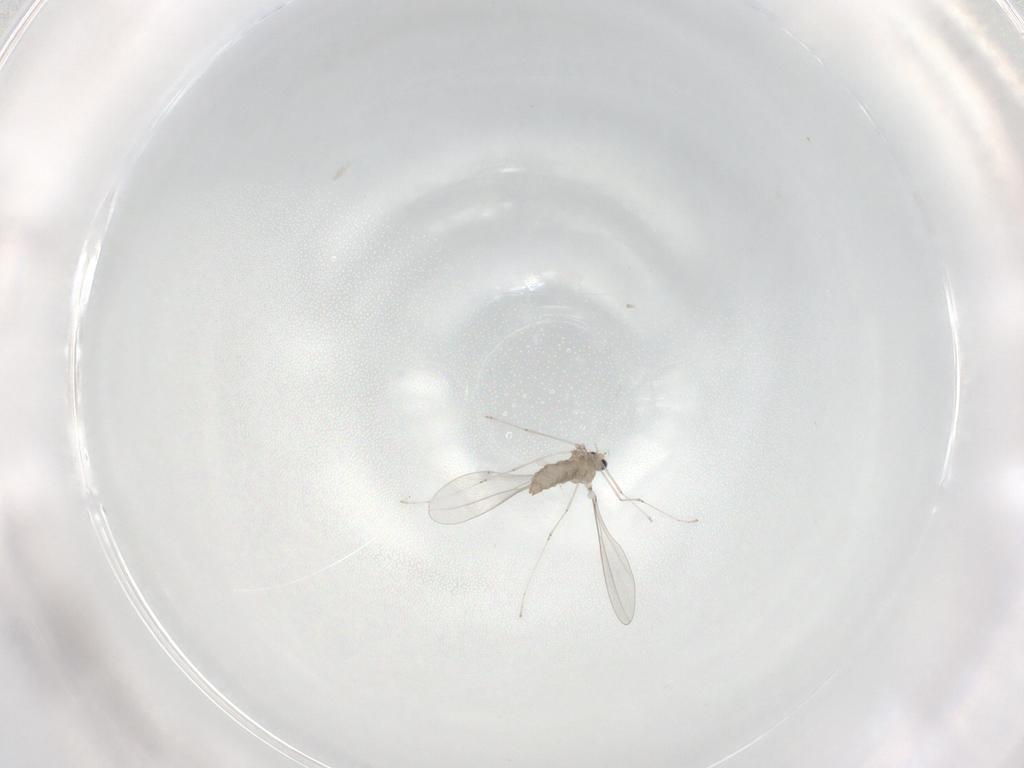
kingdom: Animalia
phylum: Arthropoda
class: Insecta
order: Diptera
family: Cecidomyiidae
